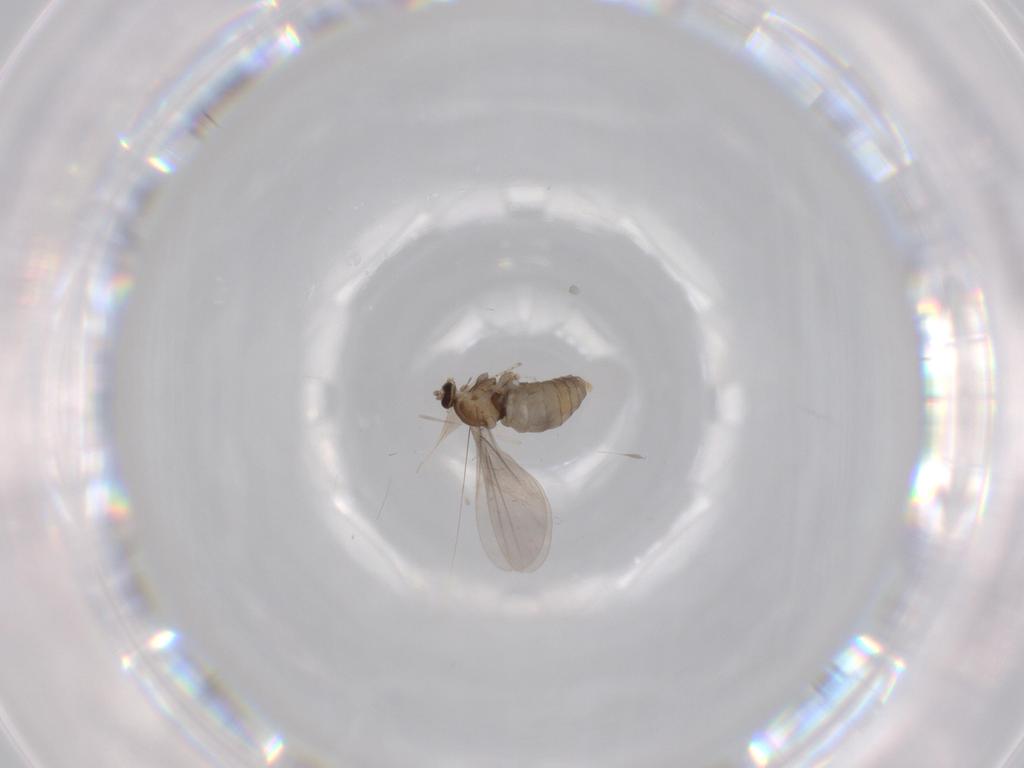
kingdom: Animalia
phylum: Arthropoda
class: Insecta
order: Diptera
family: Cecidomyiidae
